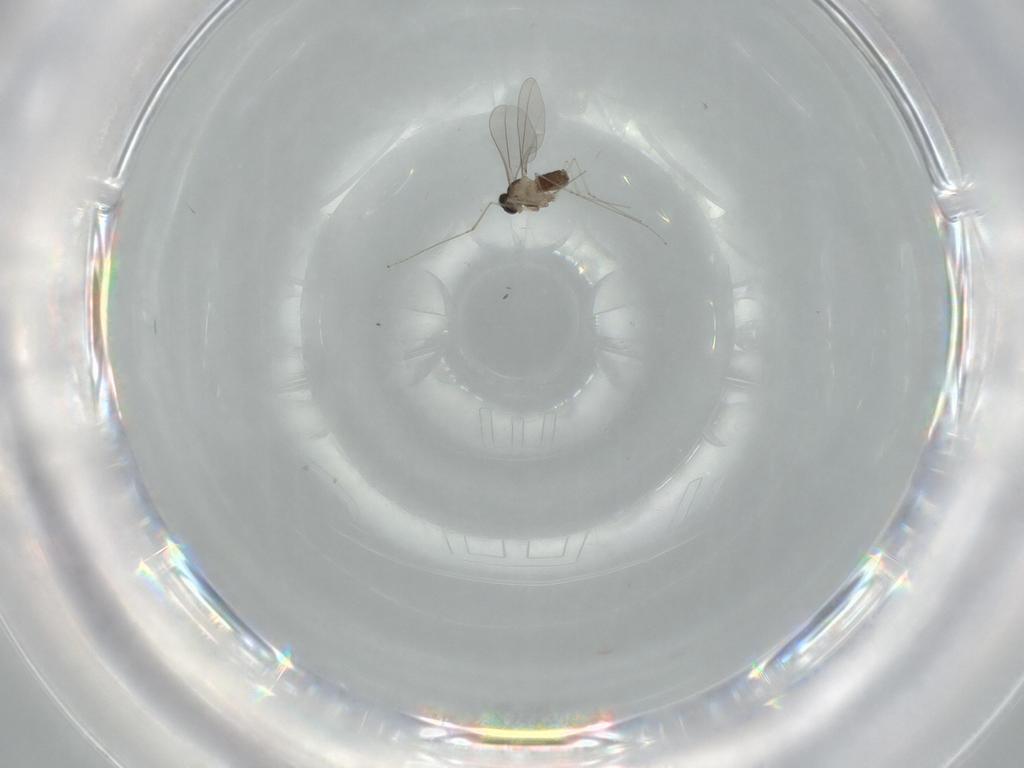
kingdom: Animalia
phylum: Arthropoda
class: Insecta
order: Diptera
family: Cecidomyiidae
